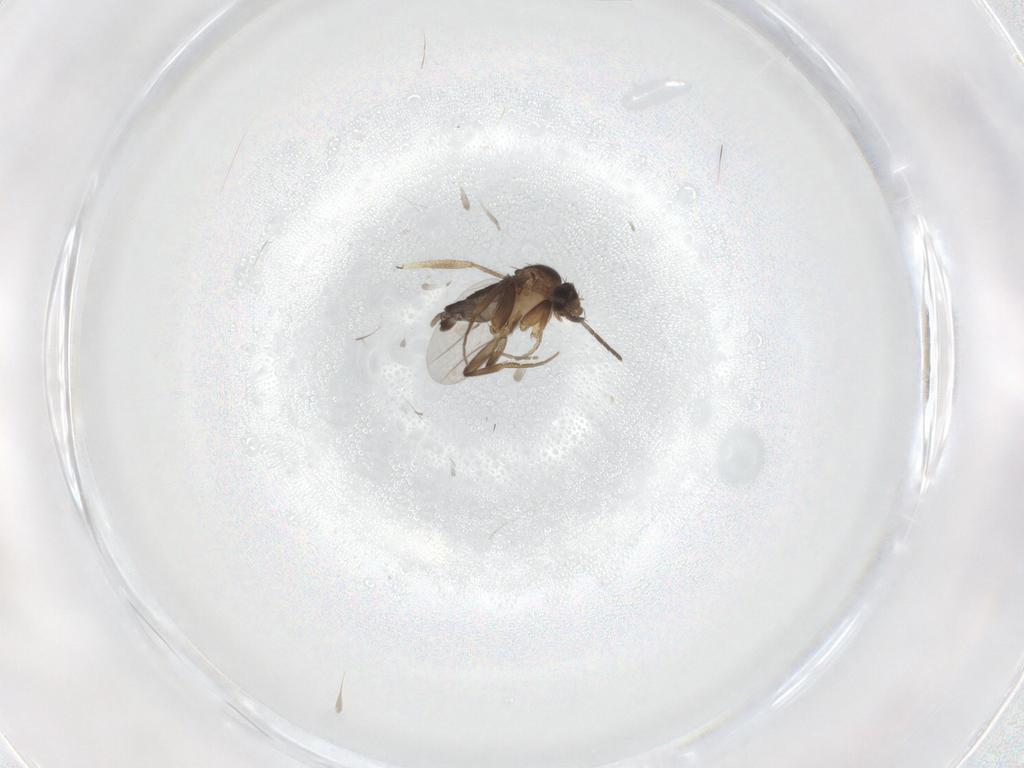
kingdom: Animalia
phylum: Arthropoda
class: Insecta
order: Diptera
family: Phoridae
